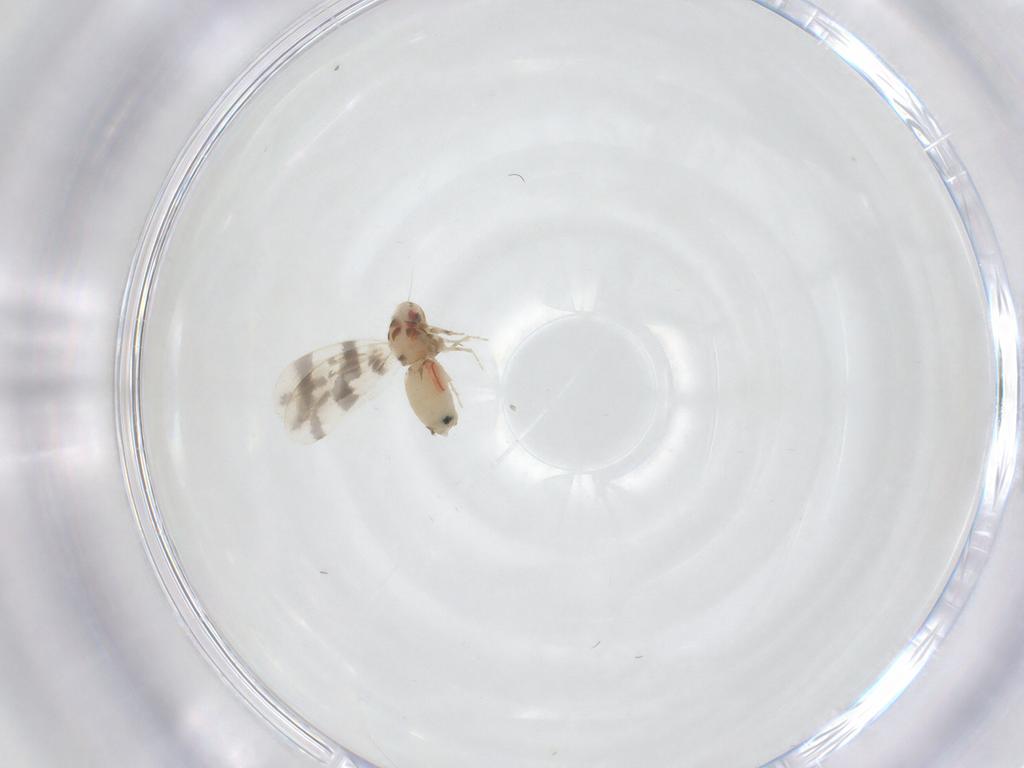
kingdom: Animalia
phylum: Arthropoda
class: Insecta
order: Hemiptera
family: Aleyrodidae
